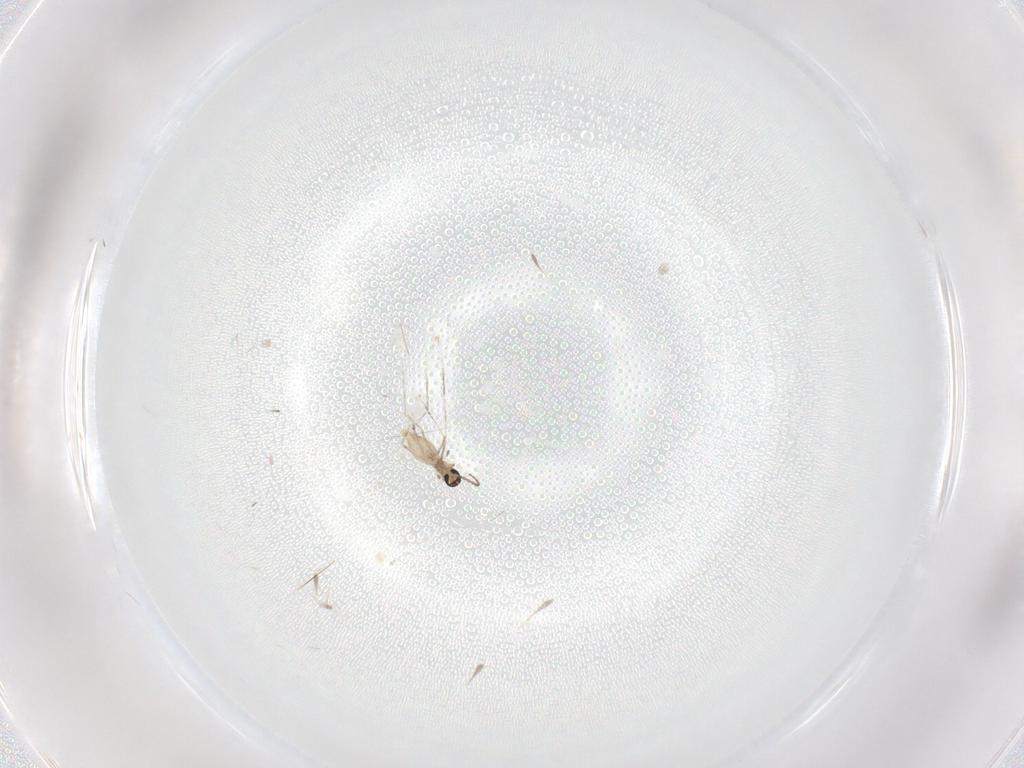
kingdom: Animalia
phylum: Arthropoda
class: Insecta
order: Diptera
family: Cecidomyiidae
